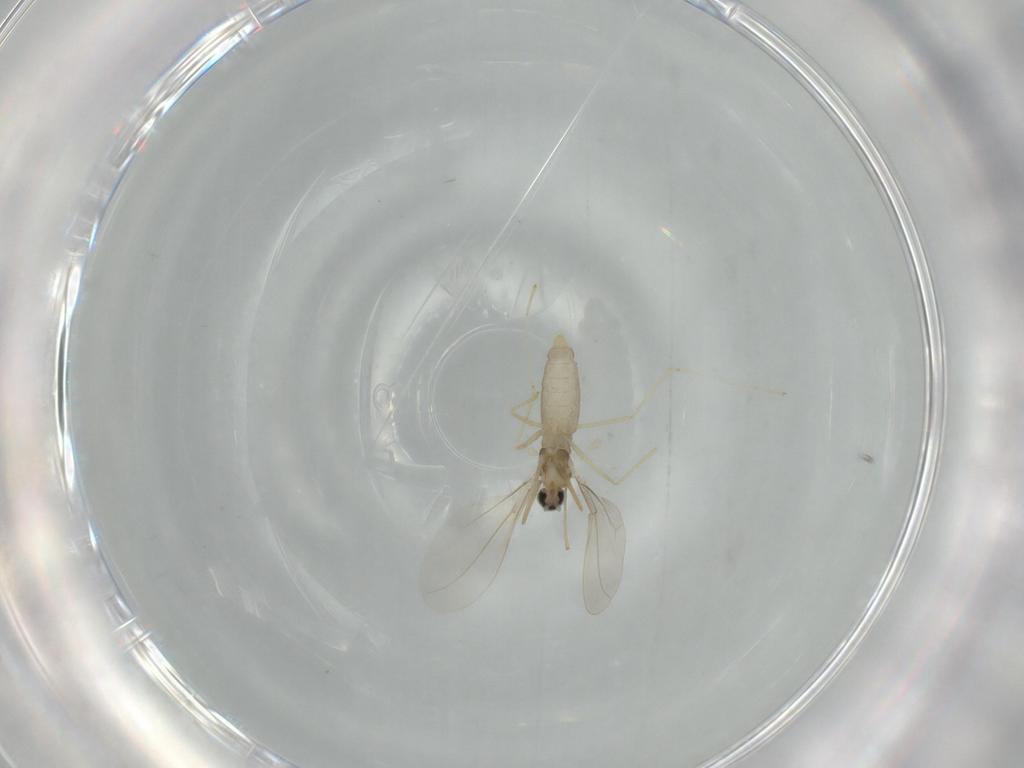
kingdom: Animalia
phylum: Arthropoda
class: Insecta
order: Diptera
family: Cecidomyiidae
